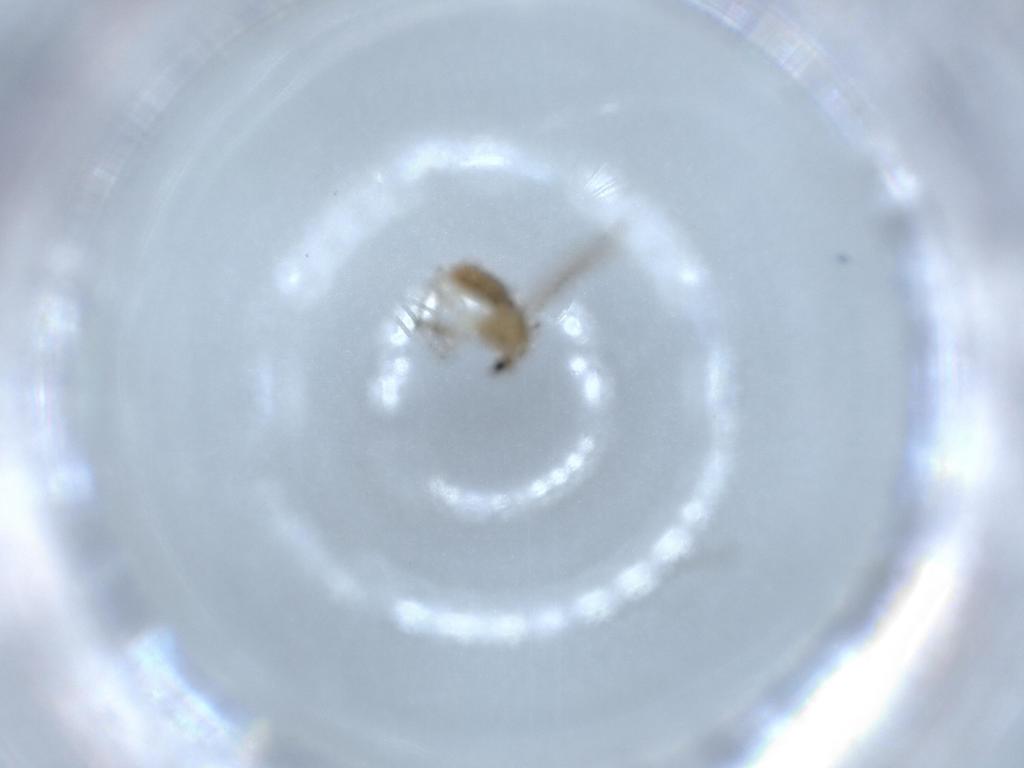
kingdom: Animalia
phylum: Arthropoda
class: Insecta
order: Diptera
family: Chironomidae
